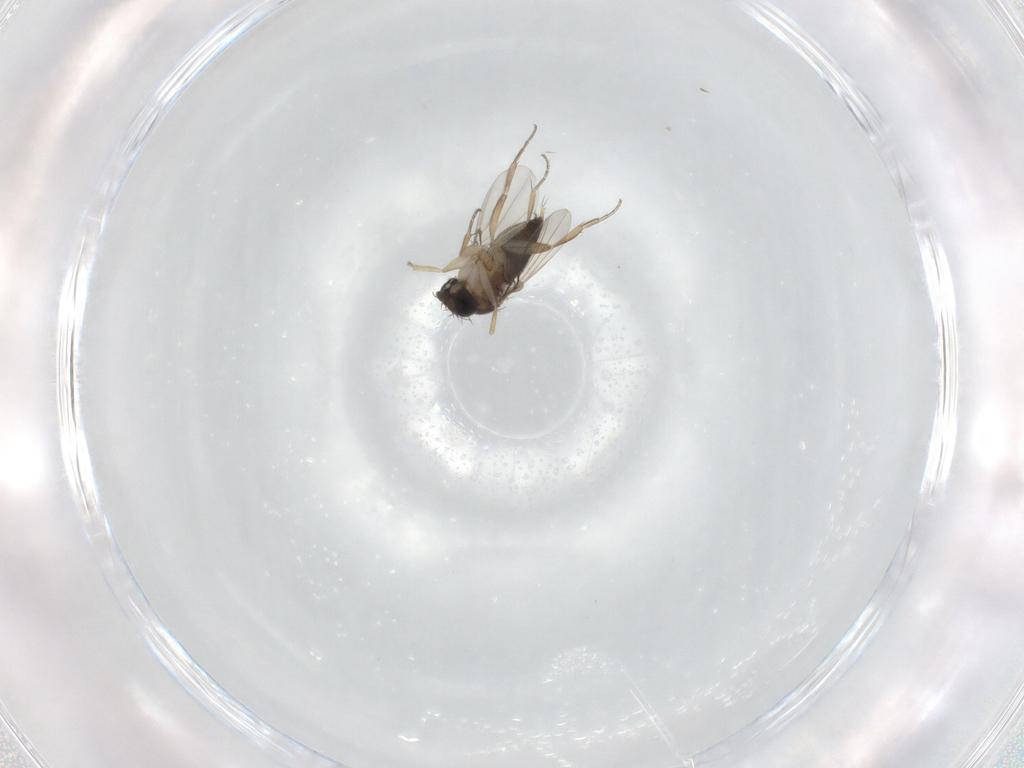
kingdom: Animalia
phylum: Arthropoda
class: Insecta
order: Diptera
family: Phoridae
